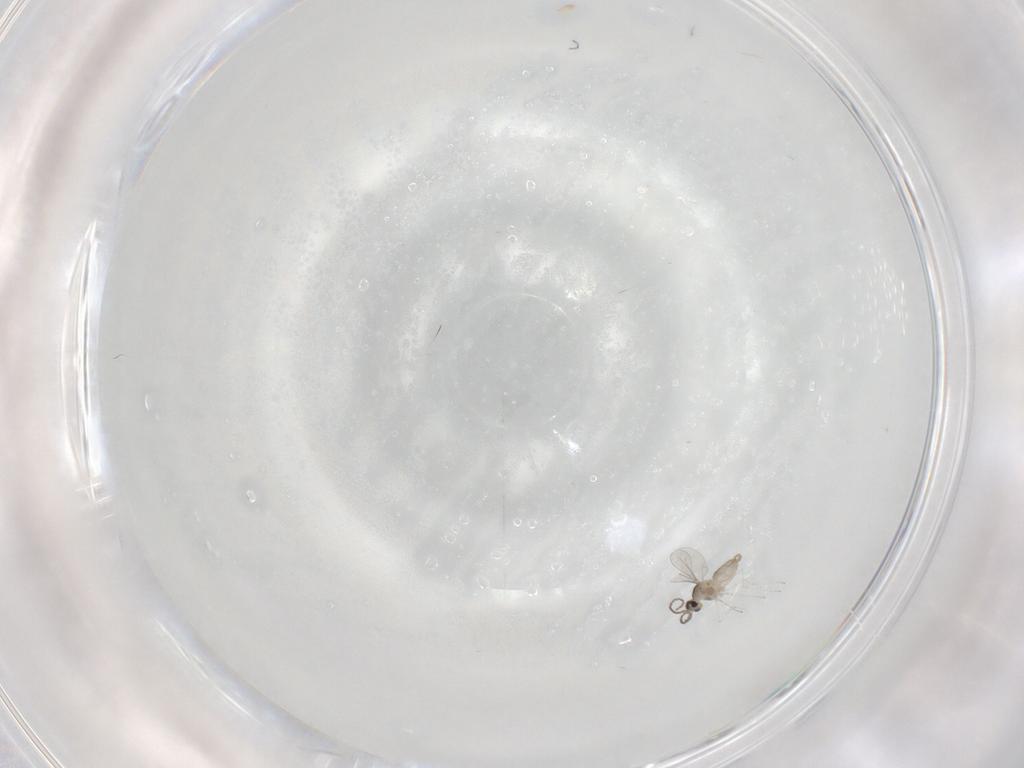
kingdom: Animalia
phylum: Arthropoda
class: Insecta
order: Diptera
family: Cecidomyiidae
